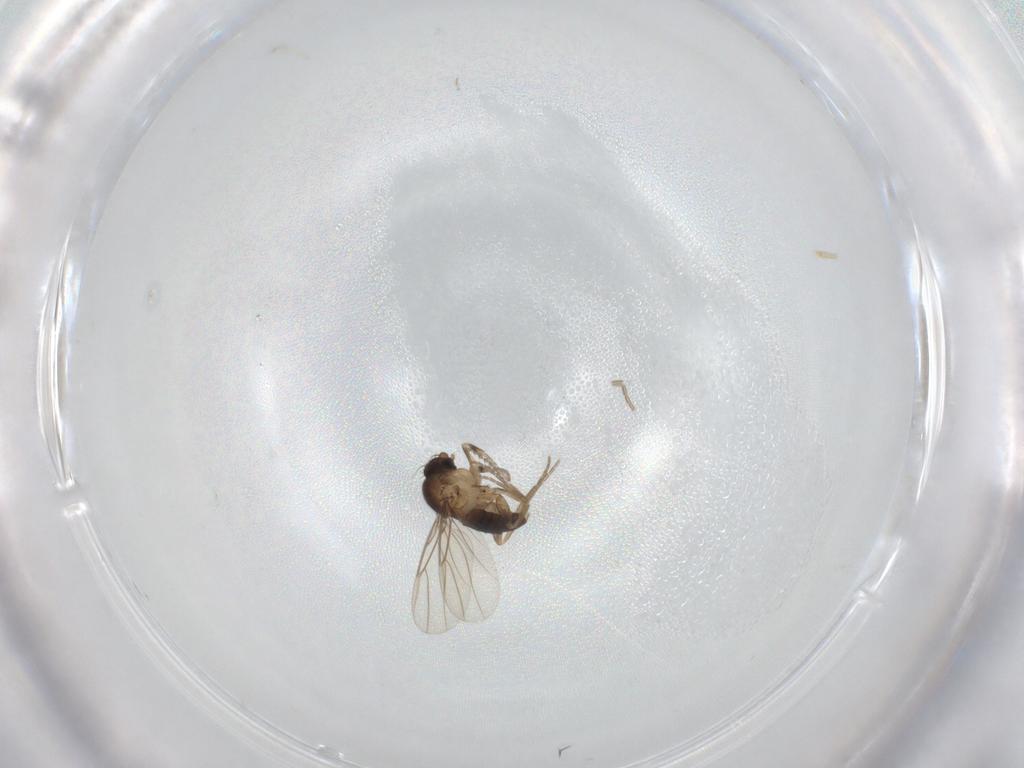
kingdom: Animalia
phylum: Arthropoda
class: Insecta
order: Diptera
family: Phoridae
